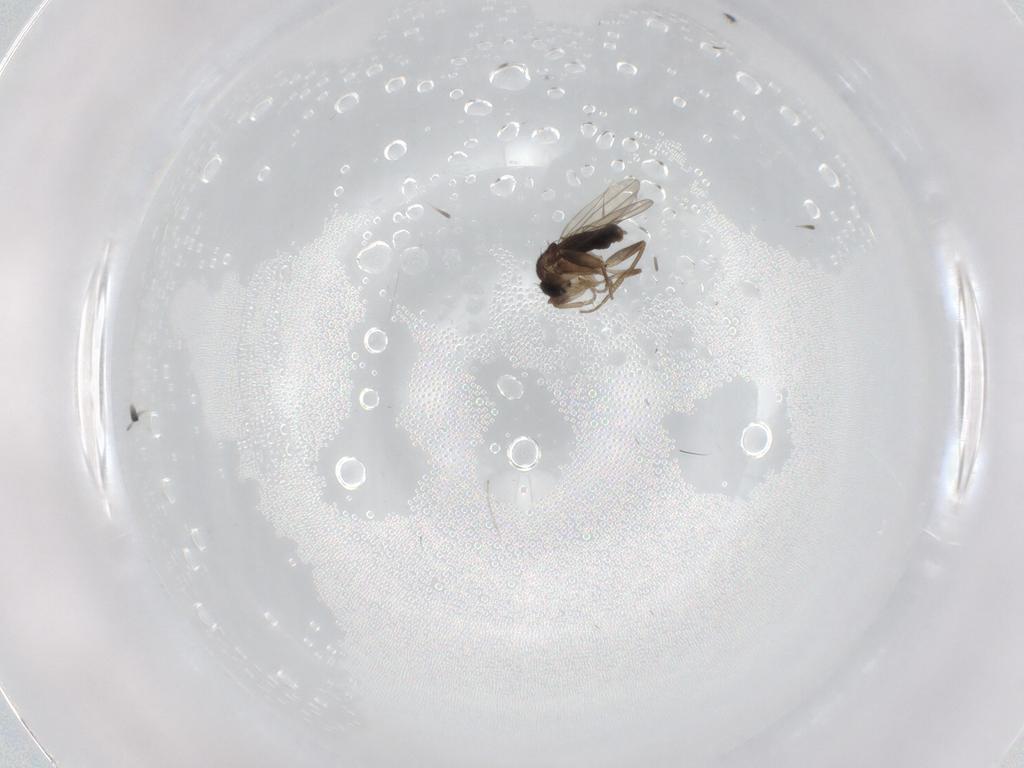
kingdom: Animalia
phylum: Arthropoda
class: Insecta
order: Diptera
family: Phoridae
